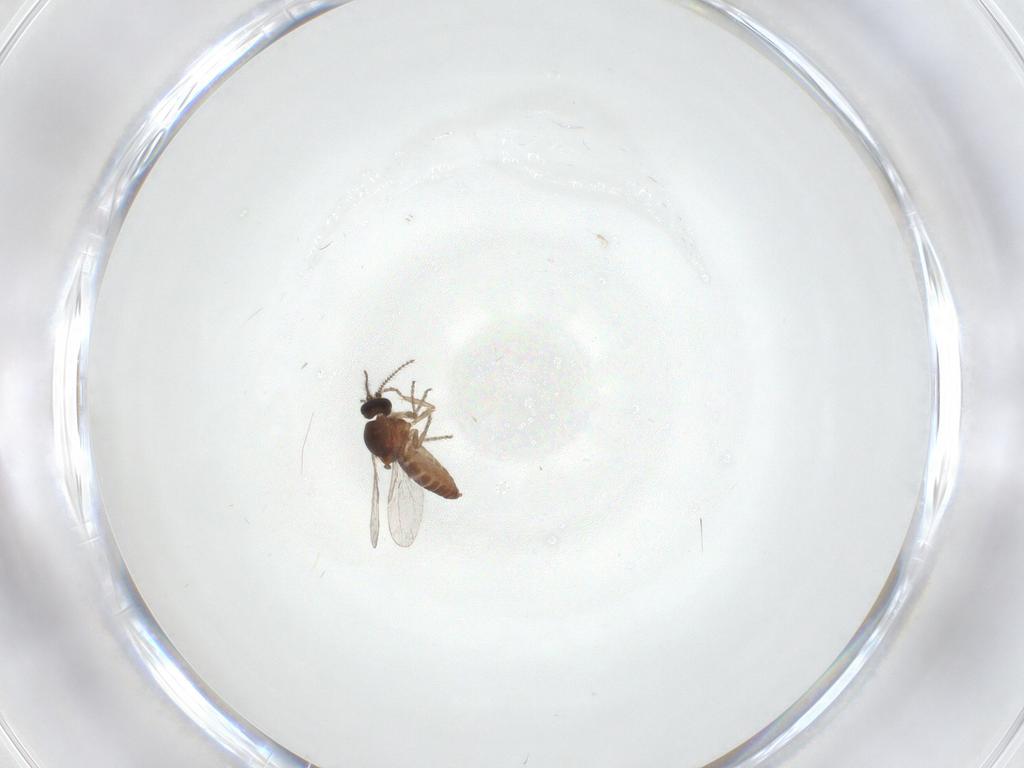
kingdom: Animalia
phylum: Arthropoda
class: Insecta
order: Diptera
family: Ceratopogonidae
